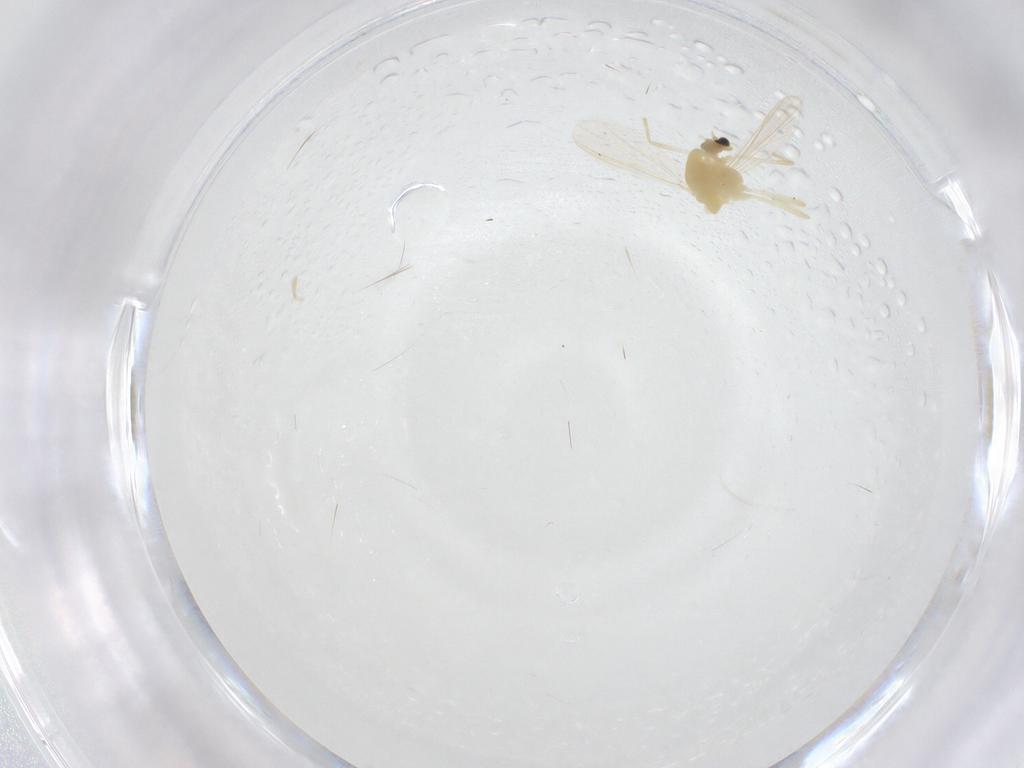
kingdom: Animalia
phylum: Arthropoda
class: Insecta
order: Diptera
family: Chironomidae
